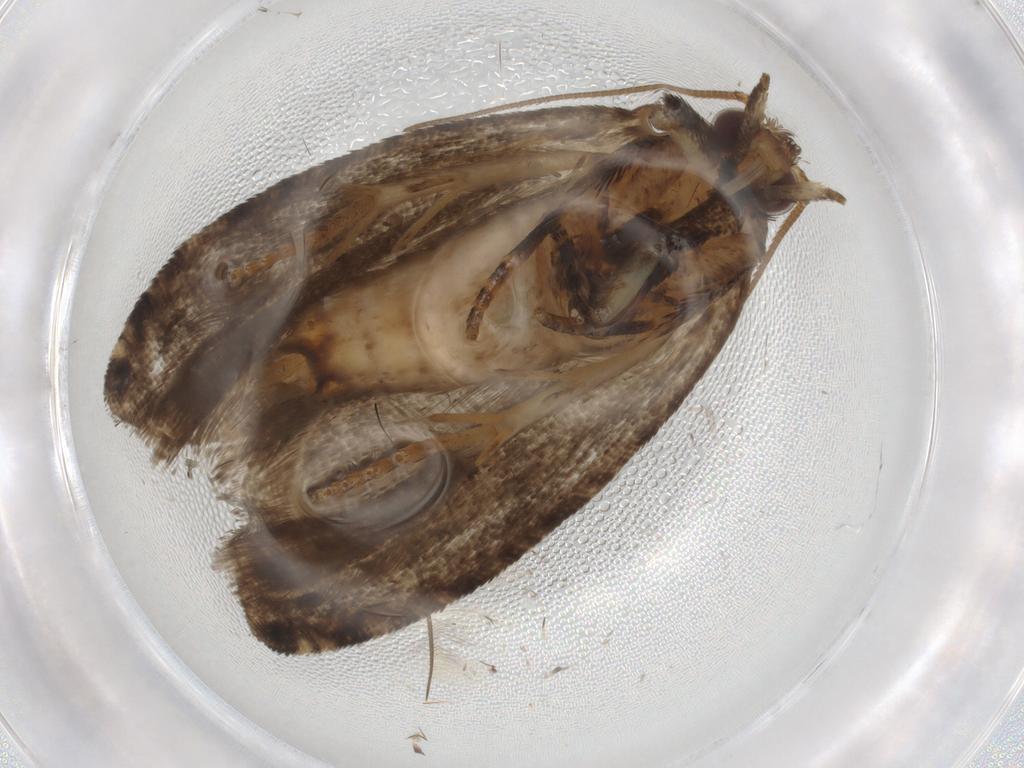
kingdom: Animalia
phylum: Arthropoda
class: Insecta
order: Lepidoptera
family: Tortricidae
